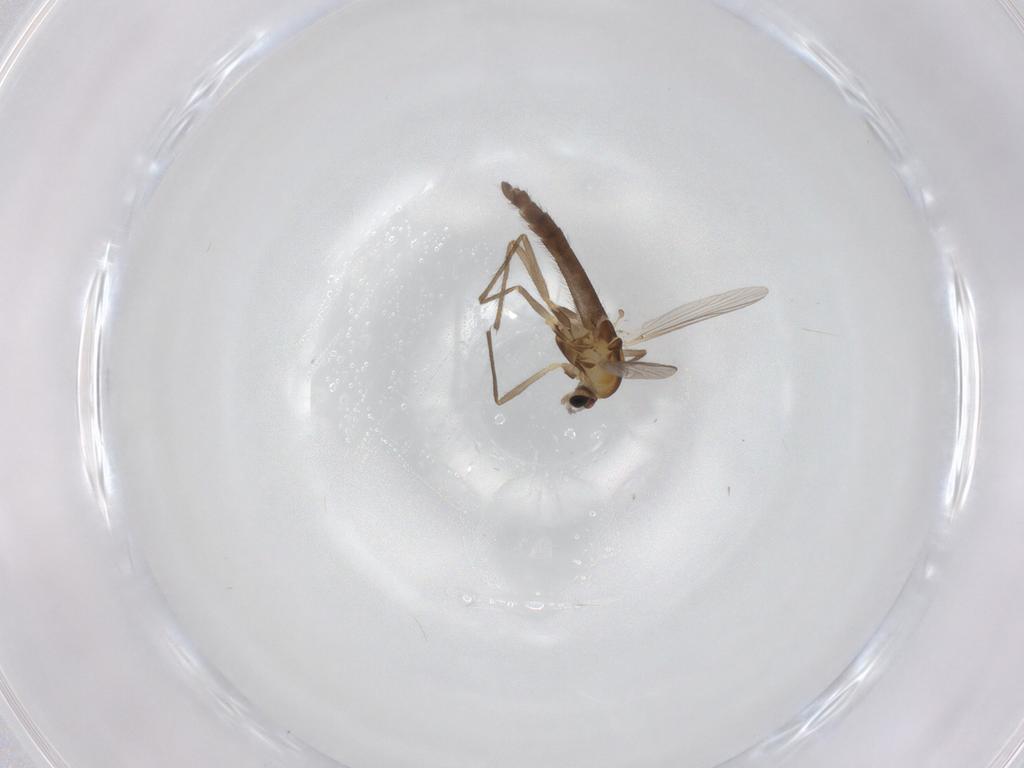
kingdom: Animalia
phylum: Arthropoda
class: Insecta
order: Diptera
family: Chironomidae
